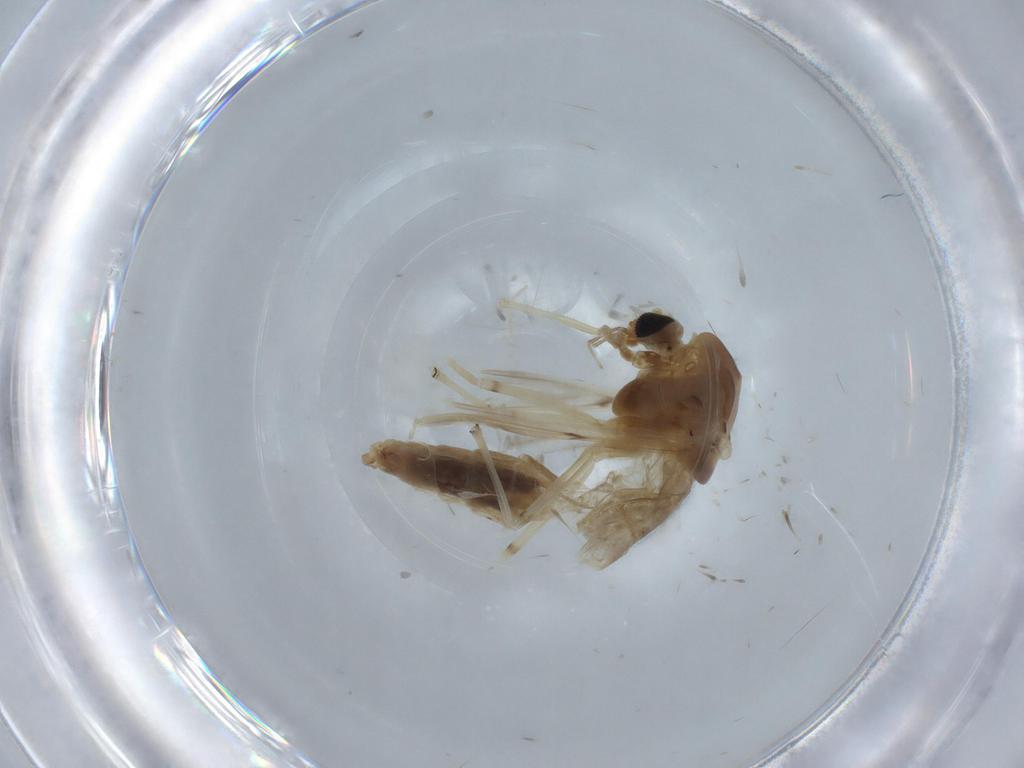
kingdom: Animalia
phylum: Arthropoda
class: Insecta
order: Diptera
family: Chironomidae
